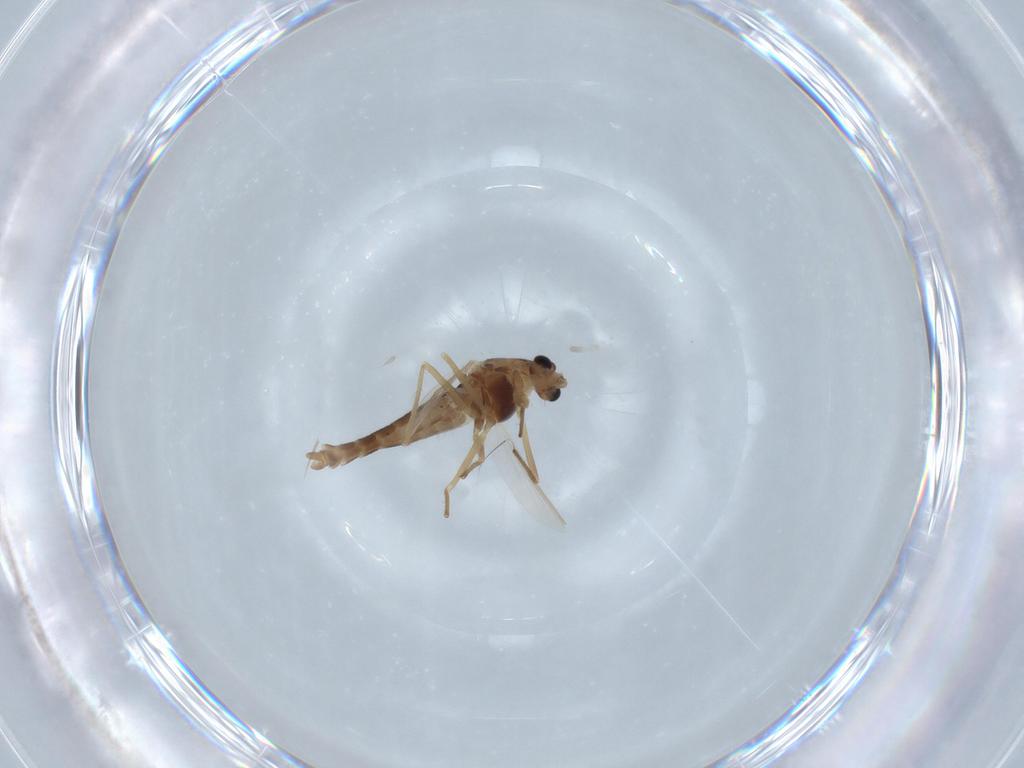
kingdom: Animalia
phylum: Arthropoda
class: Insecta
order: Diptera
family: Chironomidae
